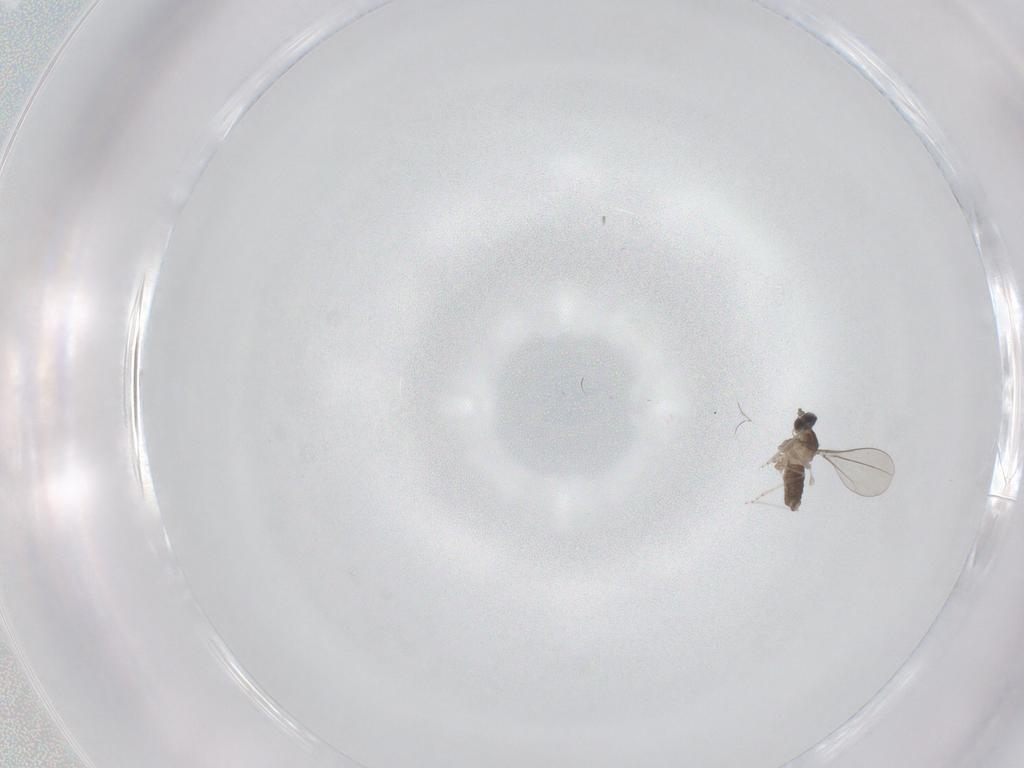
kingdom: Animalia
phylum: Arthropoda
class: Insecta
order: Diptera
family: Cecidomyiidae
